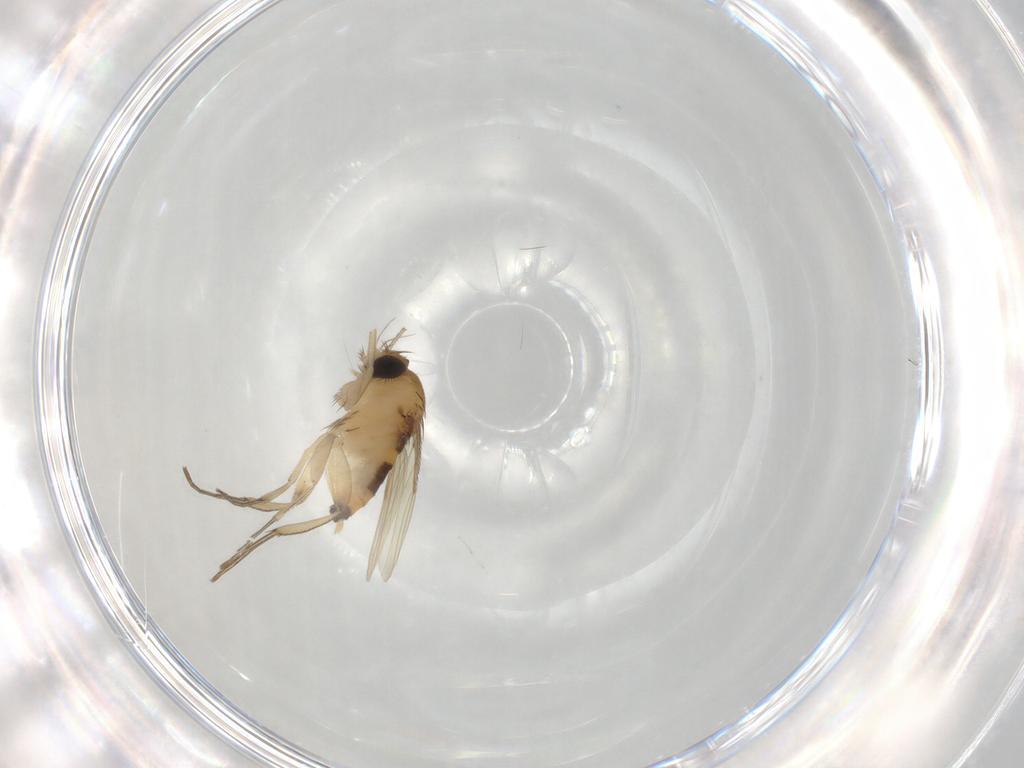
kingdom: Animalia
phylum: Arthropoda
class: Insecta
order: Diptera
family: Phoridae
